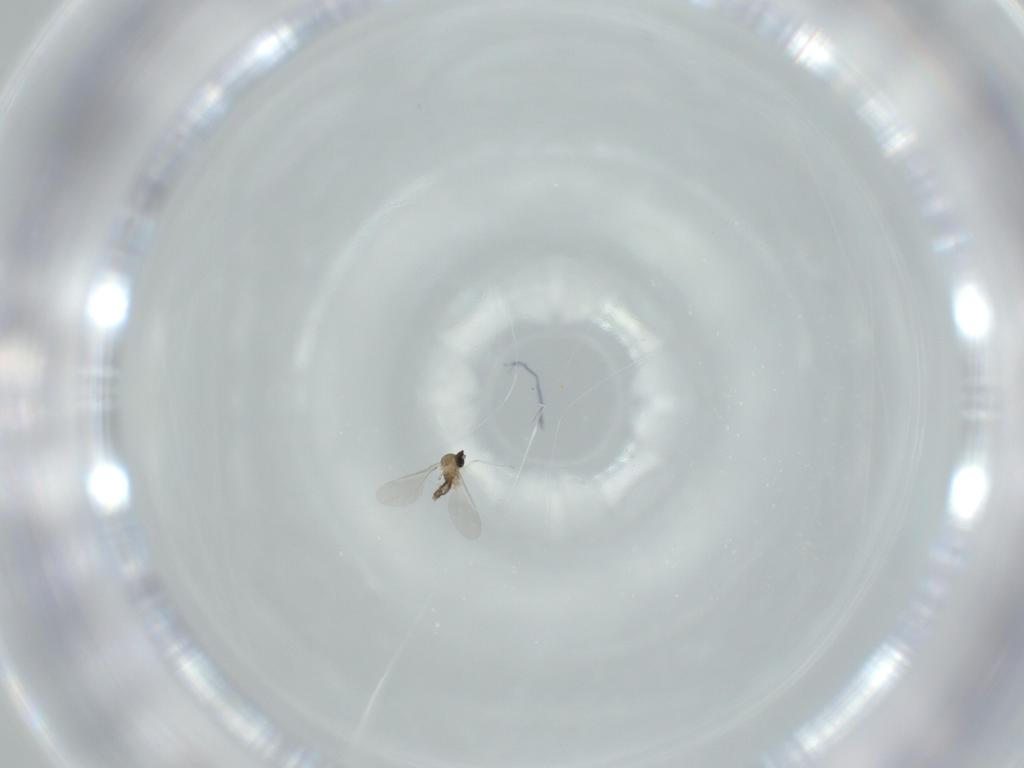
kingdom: Animalia
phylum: Arthropoda
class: Insecta
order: Diptera
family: Cecidomyiidae
